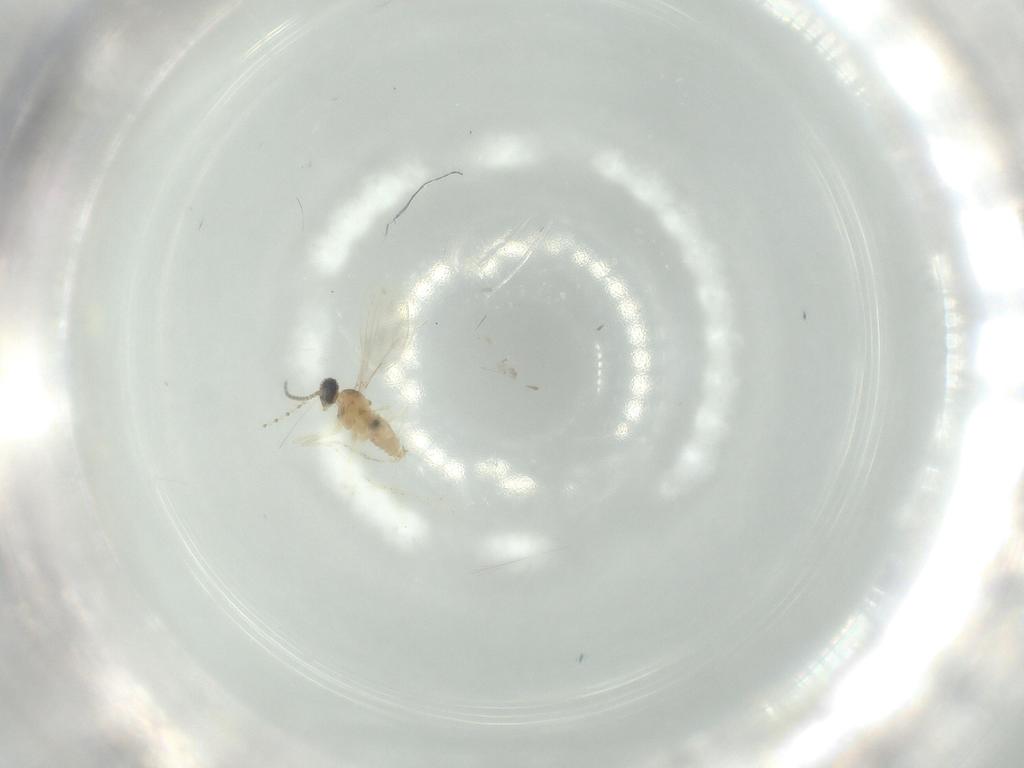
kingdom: Animalia
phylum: Arthropoda
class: Insecta
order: Diptera
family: Cecidomyiidae
